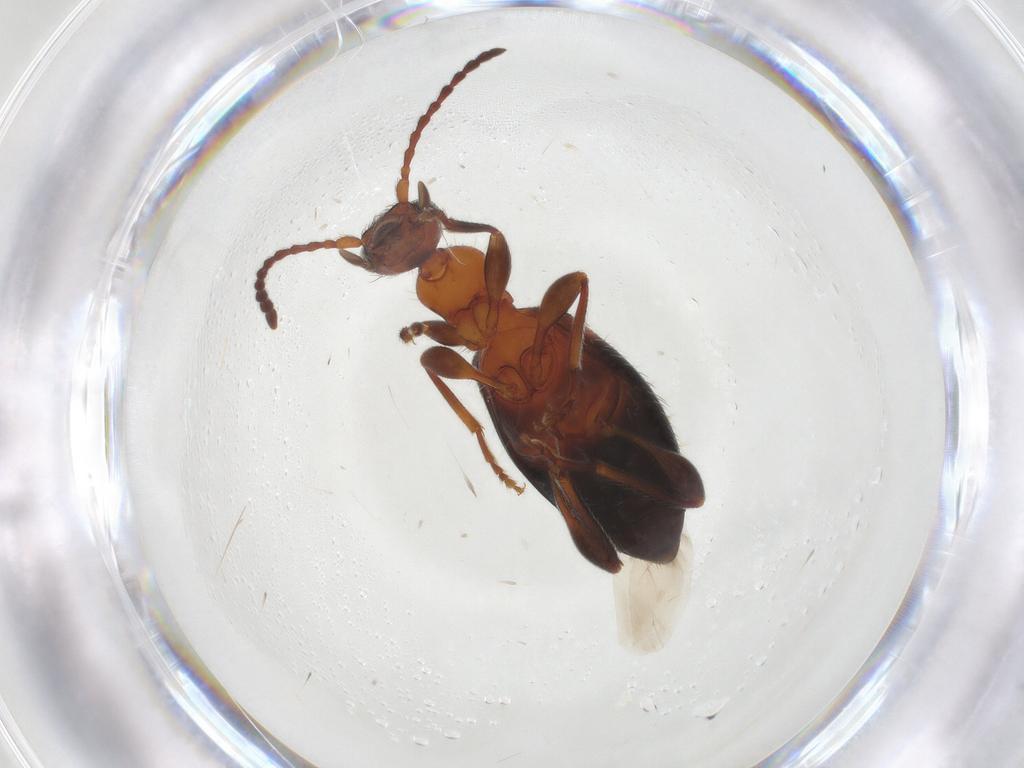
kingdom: Animalia
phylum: Arthropoda
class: Insecta
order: Coleoptera
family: Anthicidae
